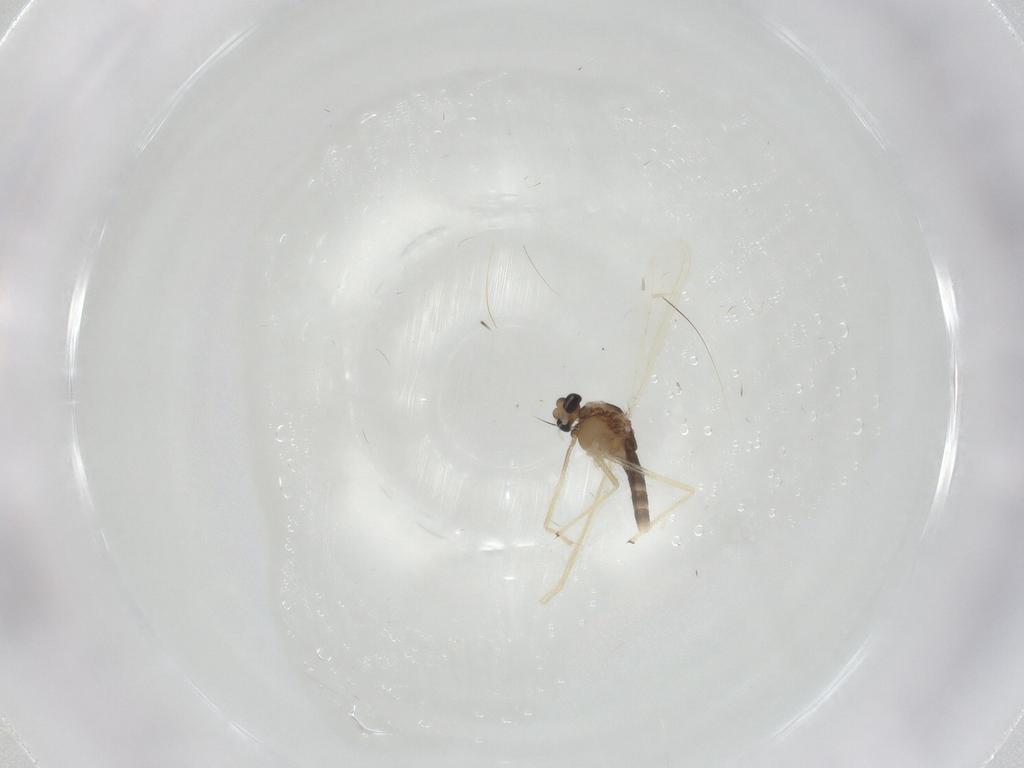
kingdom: Animalia
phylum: Arthropoda
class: Insecta
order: Diptera
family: Chironomidae
